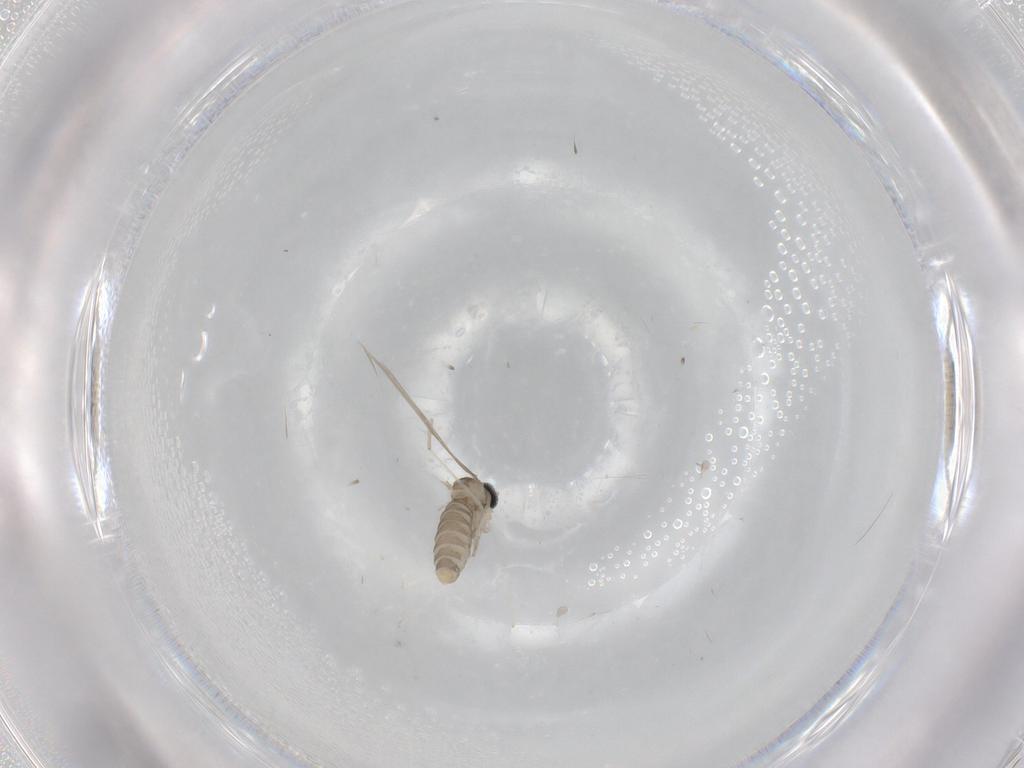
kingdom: Animalia
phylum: Arthropoda
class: Insecta
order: Diptera
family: Cecidomyiidae
